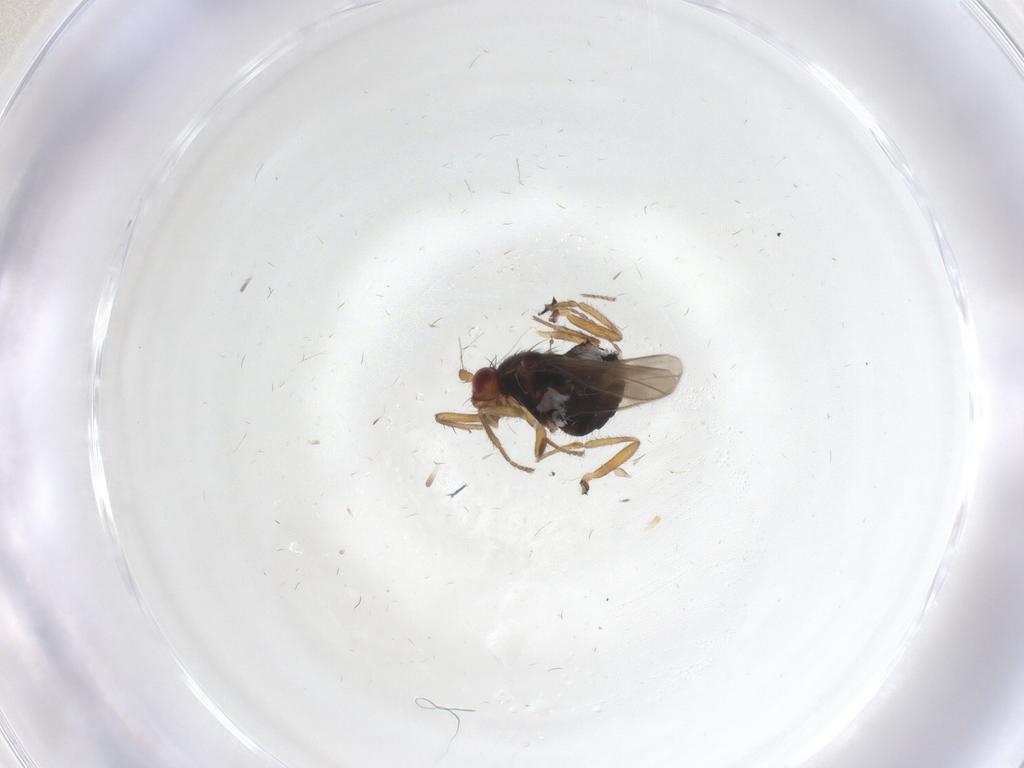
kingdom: Animalia
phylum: Arthropoda
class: Insecta
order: Diptera
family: Sphaeroceridae
